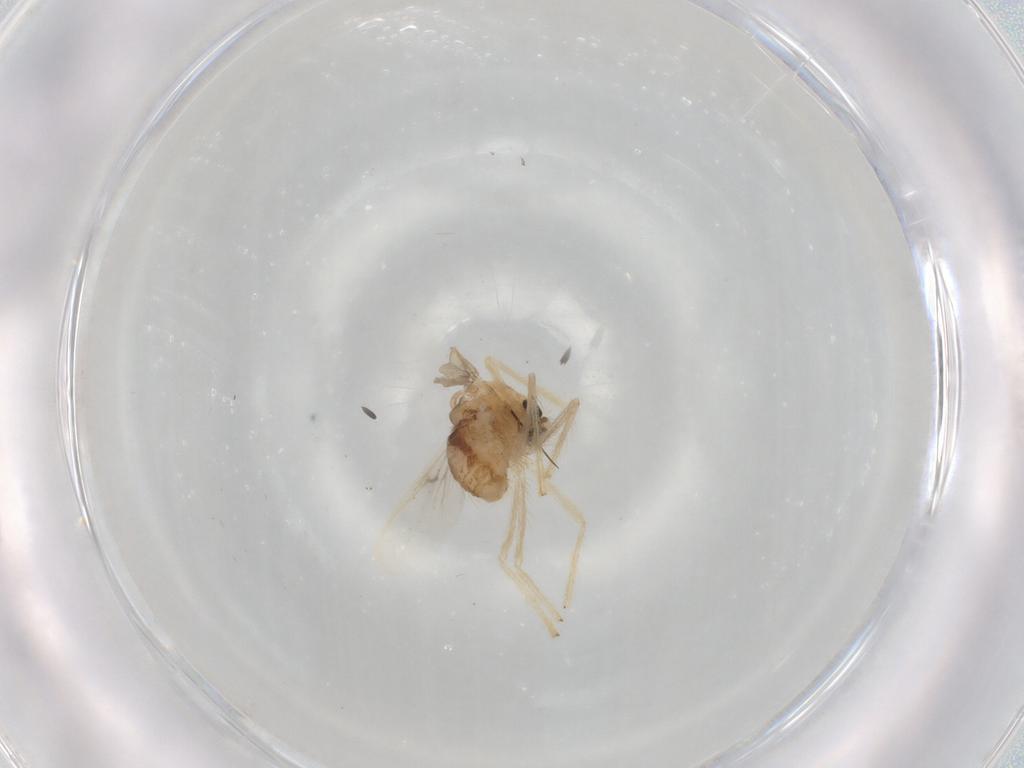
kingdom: Animalia
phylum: Arthropoda
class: Insecta
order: Diptera
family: Chironomidae
